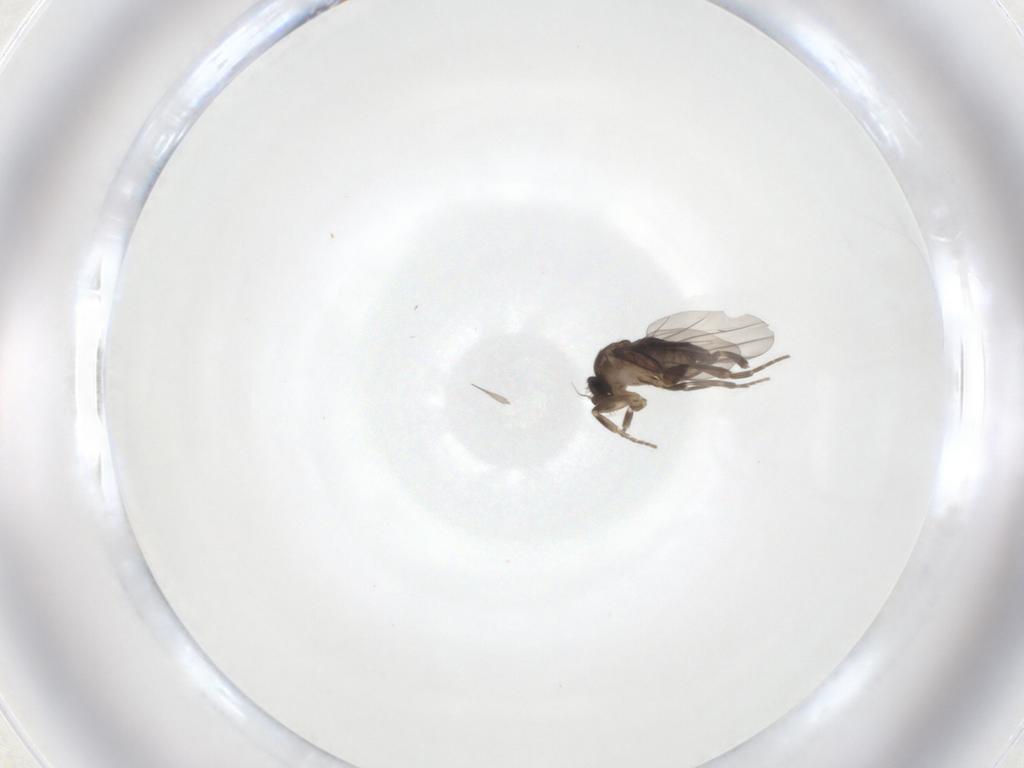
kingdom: Animalia
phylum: Arthropoda
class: Insecta
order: Diptera
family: Phoridae
